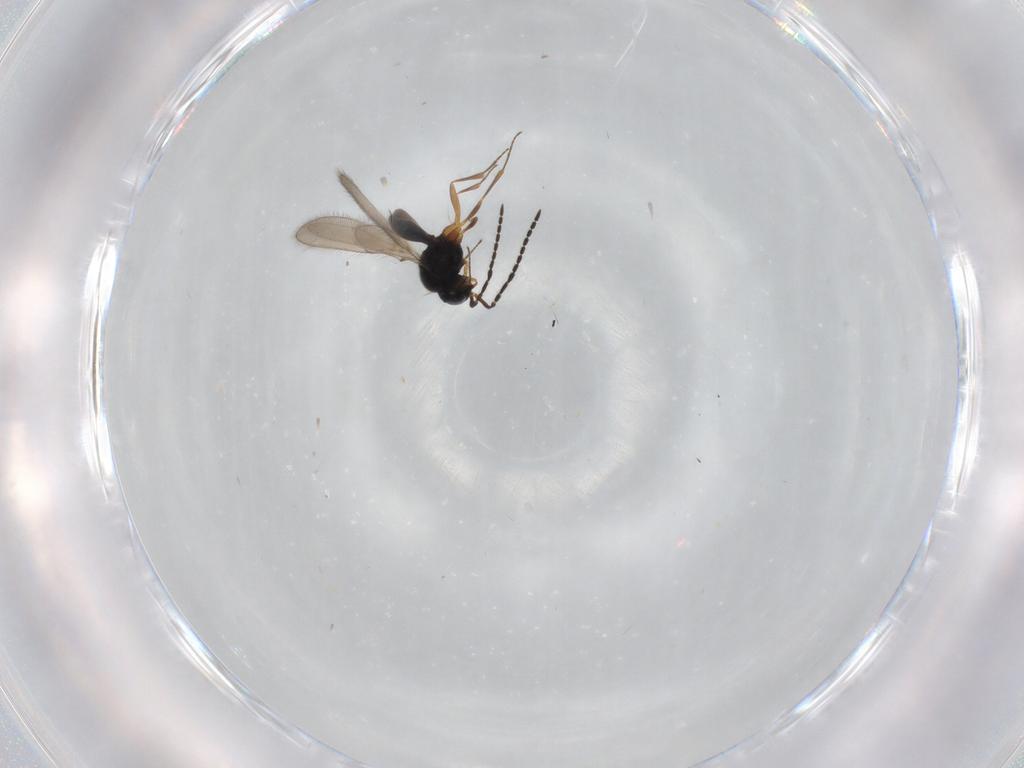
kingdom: Animalia
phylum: Arthropoda
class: Insecta
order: Hymenoptera
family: Scelionidae
